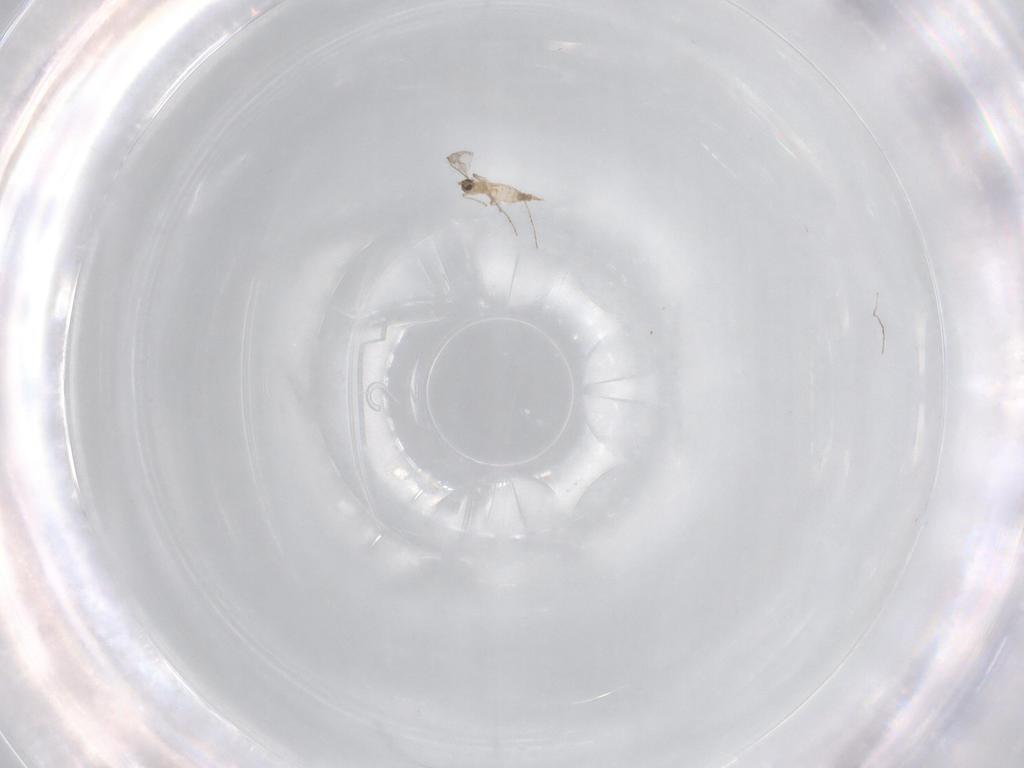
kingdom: Animalia
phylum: Arthropoda
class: Insecta
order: Diptera
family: Cecidomyiidae
